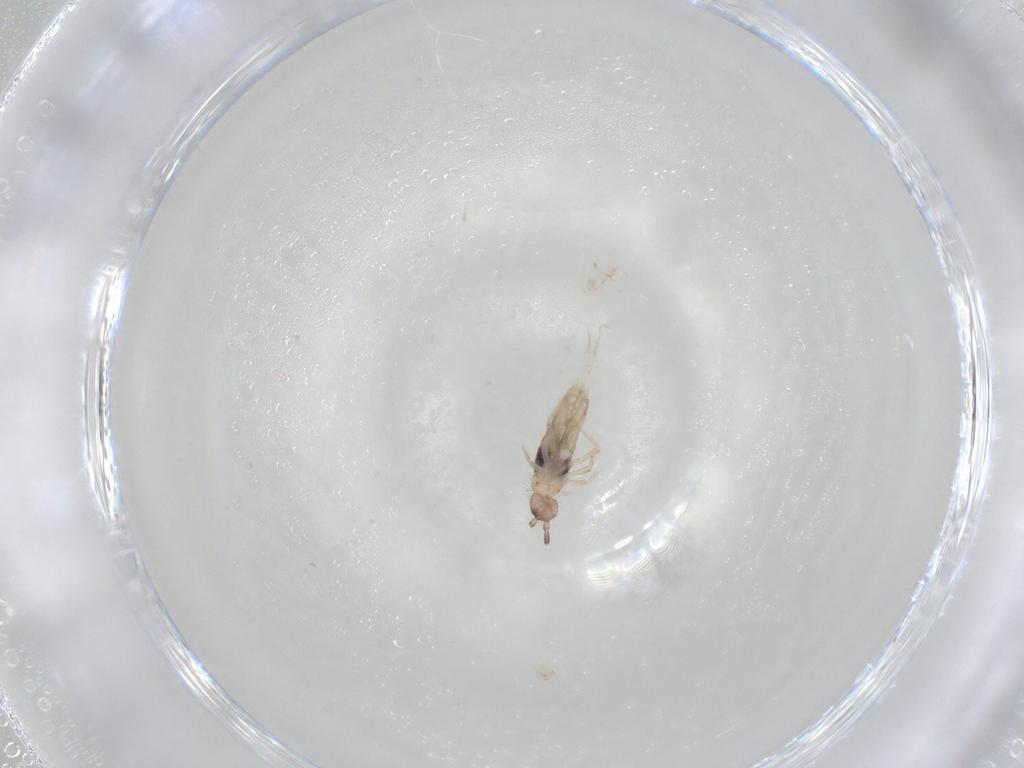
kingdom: Animalia
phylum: Arthropoda
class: Collembola
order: Entomobryomorpha
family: Entomobryidae
